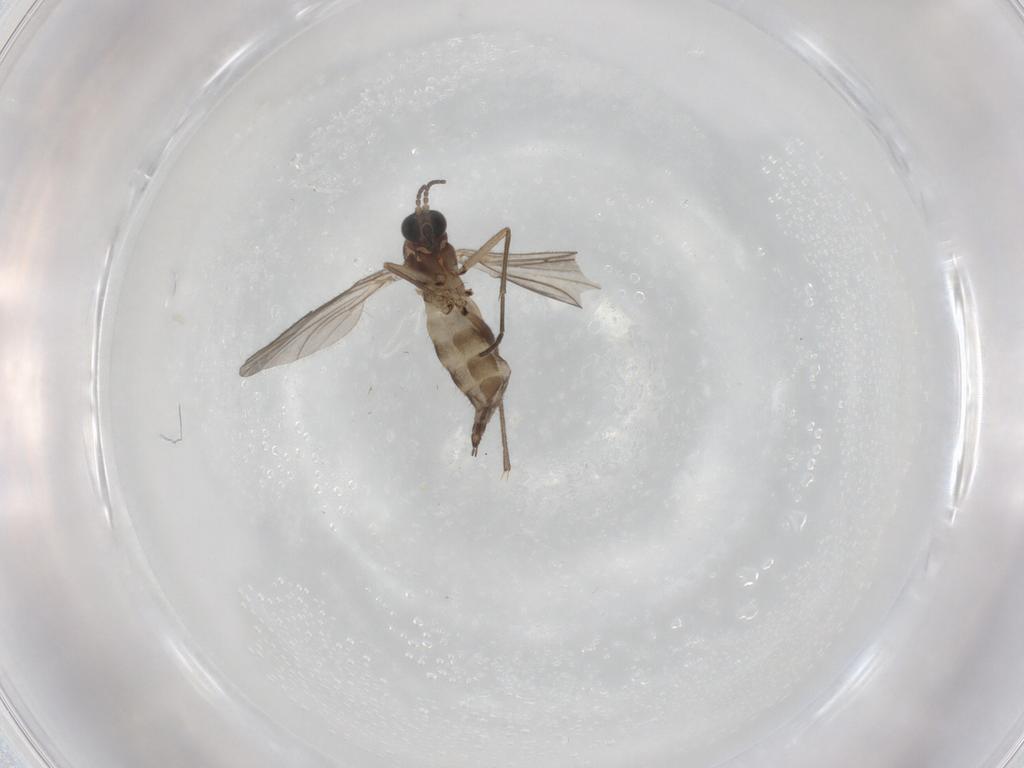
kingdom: Animalia
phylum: Arthropoda
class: Insecta
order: Diptera
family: Sciaridae
